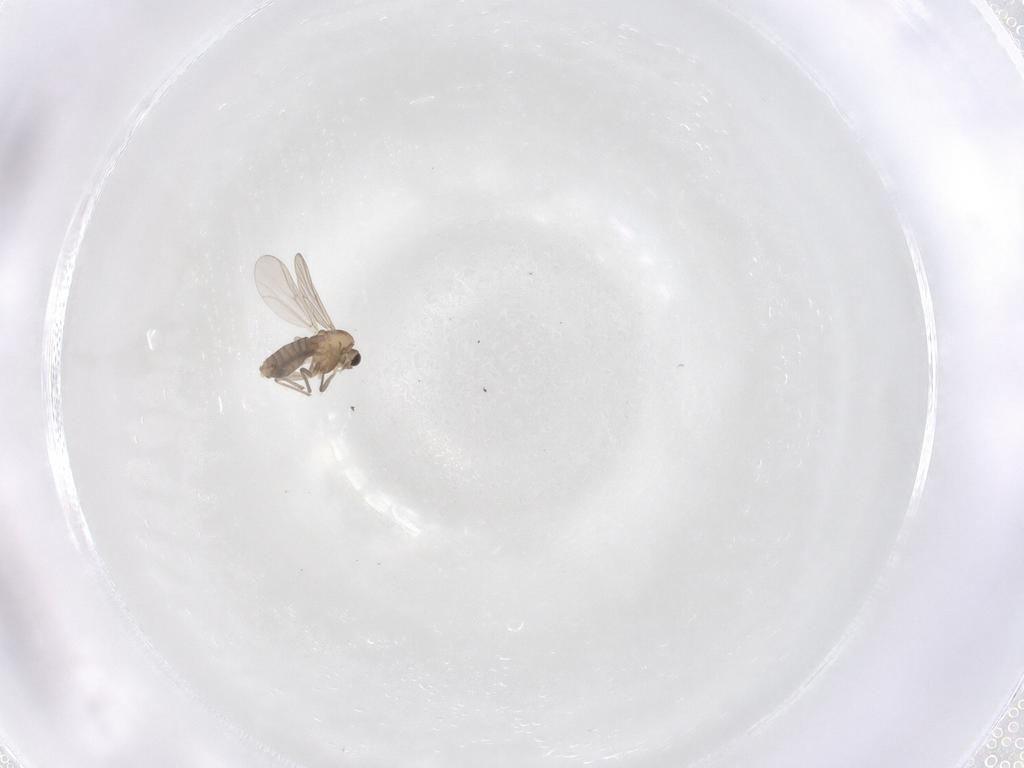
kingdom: Animalia
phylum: Arthropoda
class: Insecta
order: Diptera
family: Chironomidae
